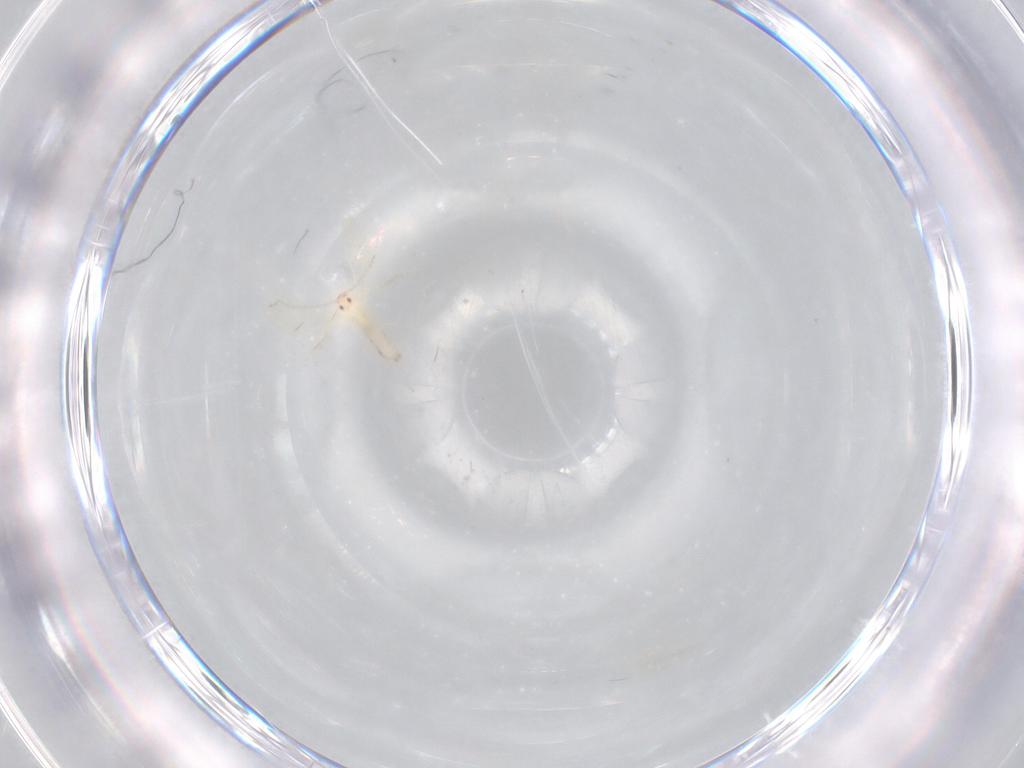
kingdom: Animalia
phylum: Arthropoda
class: Insecta
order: Diptera
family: Cecidomyiidae
